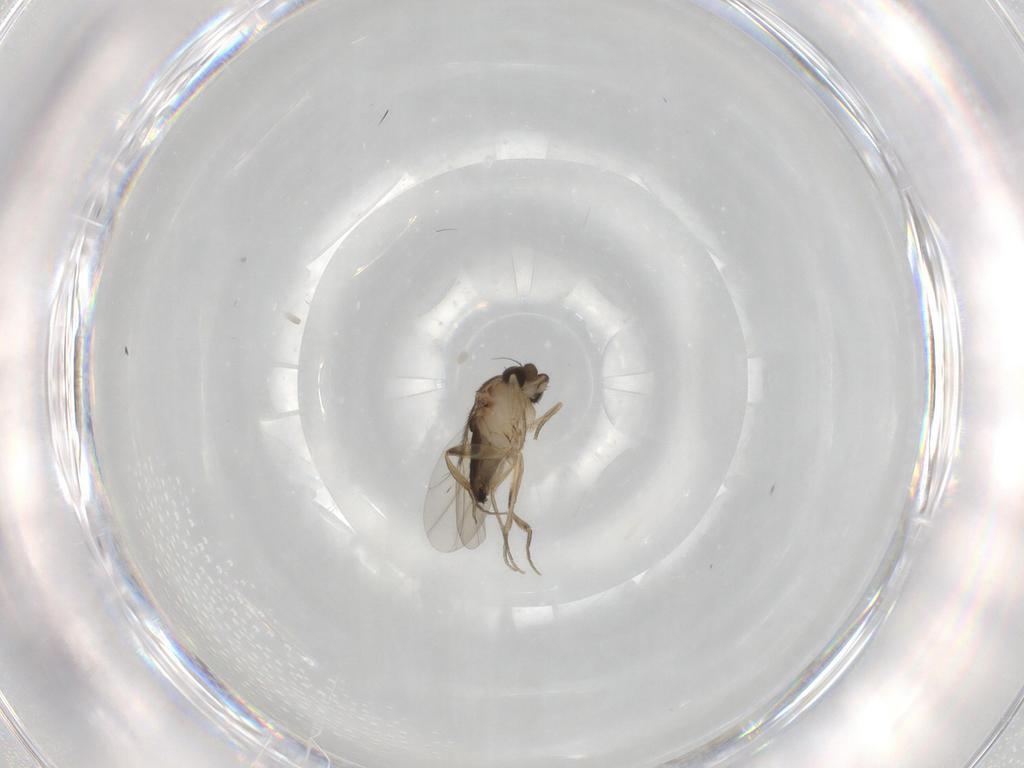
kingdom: Animalia
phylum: Arthropoda
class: Insecta
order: Diptera
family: Phoridae
